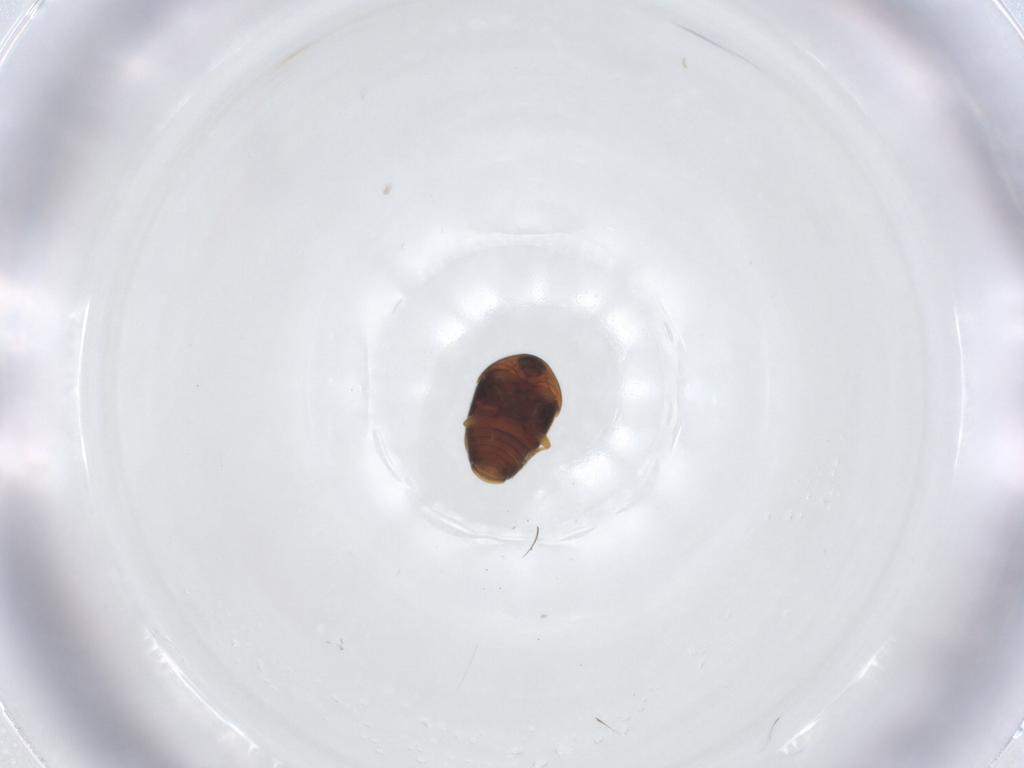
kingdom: Animalia
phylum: Arthropoda
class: Insecta
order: Coleoptera
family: Corylophidae
